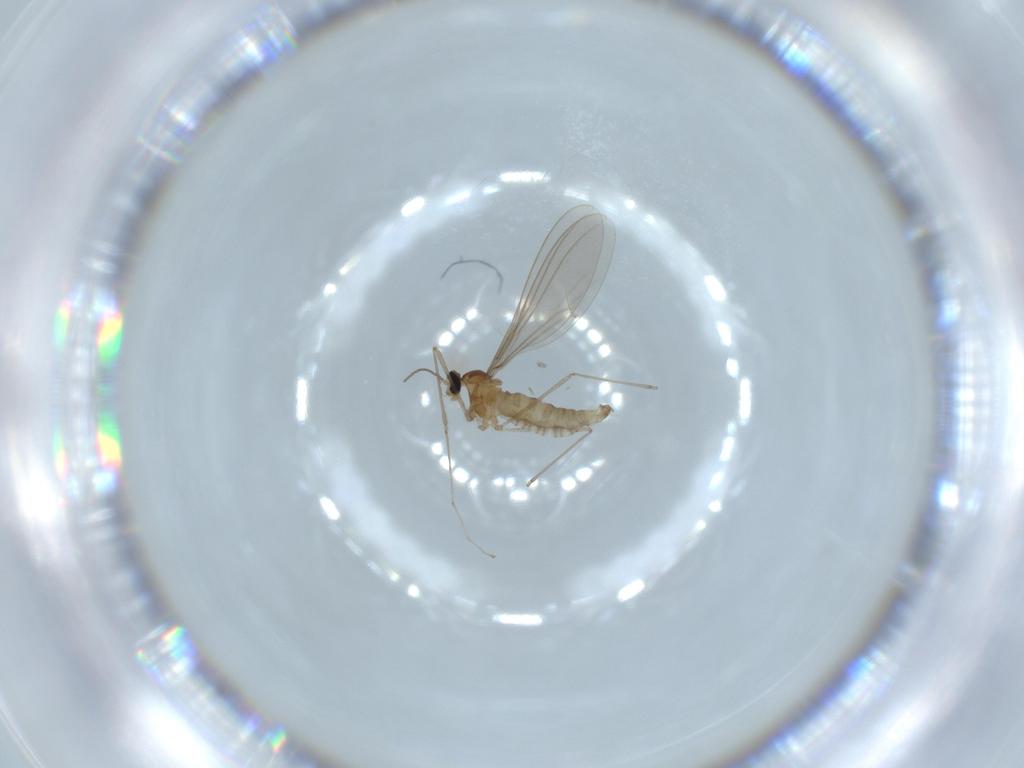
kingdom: Animalia
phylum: Arthropoda
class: Insecta
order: Diptera
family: Cecidomyiidae
